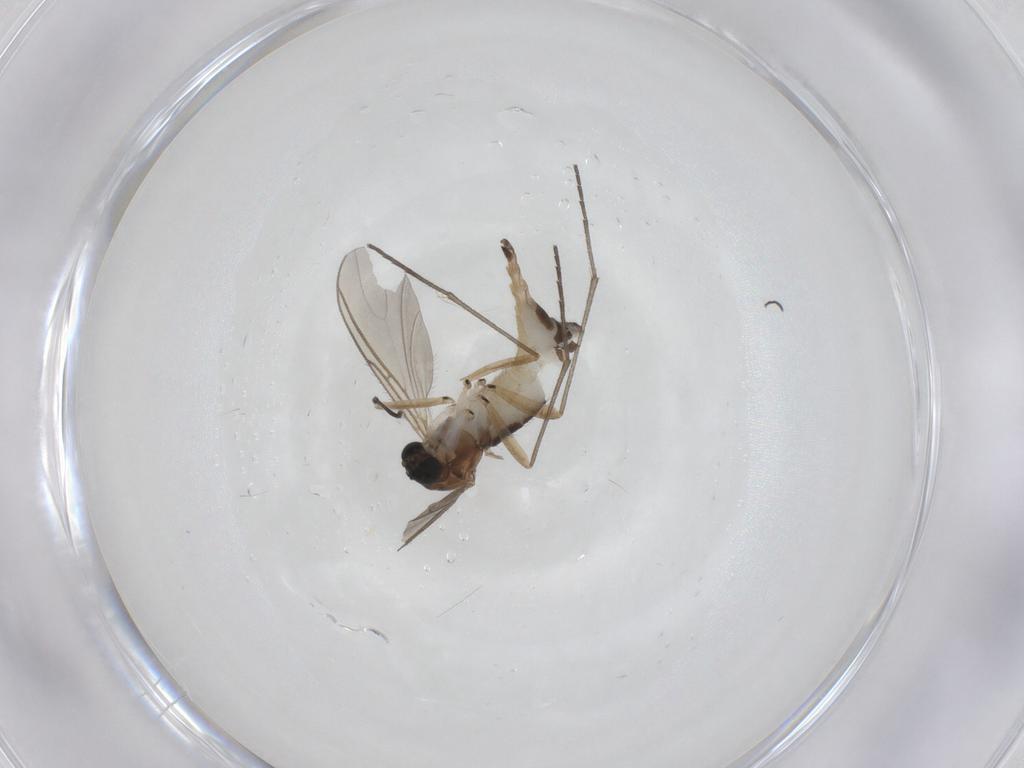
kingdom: Animalia
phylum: Arthropoda
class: Insecta
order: Diptera
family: Sciaridae
